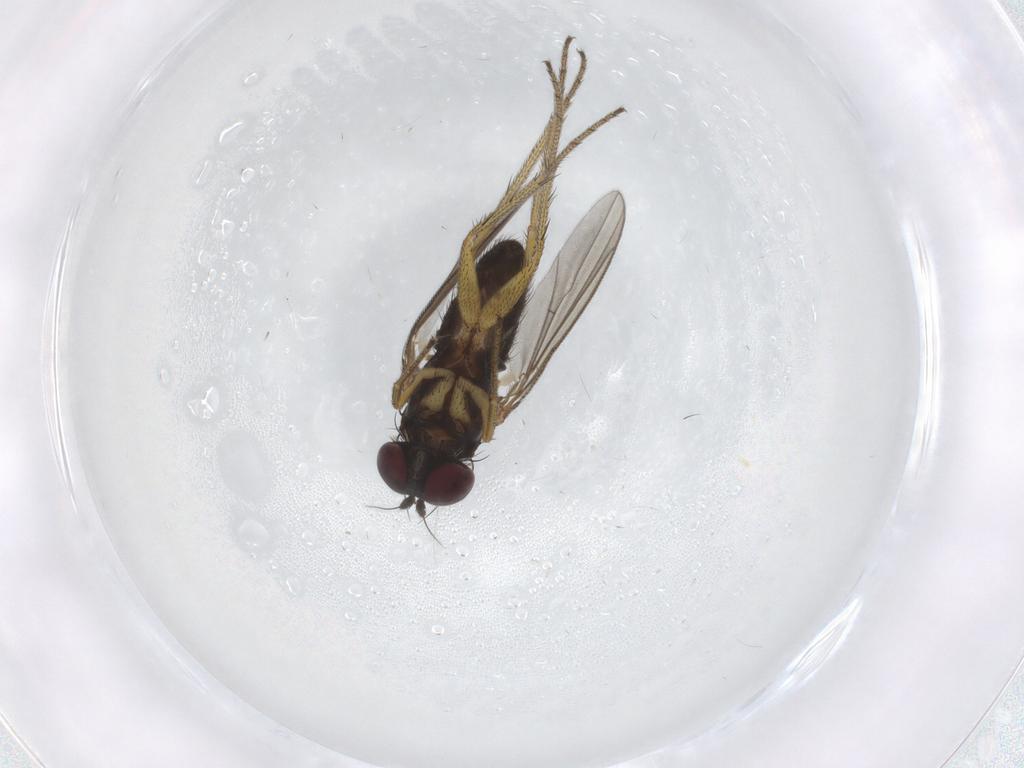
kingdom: Animalia
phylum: Arthropoda
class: Insecta
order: Diptera
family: Dolichopodidae
